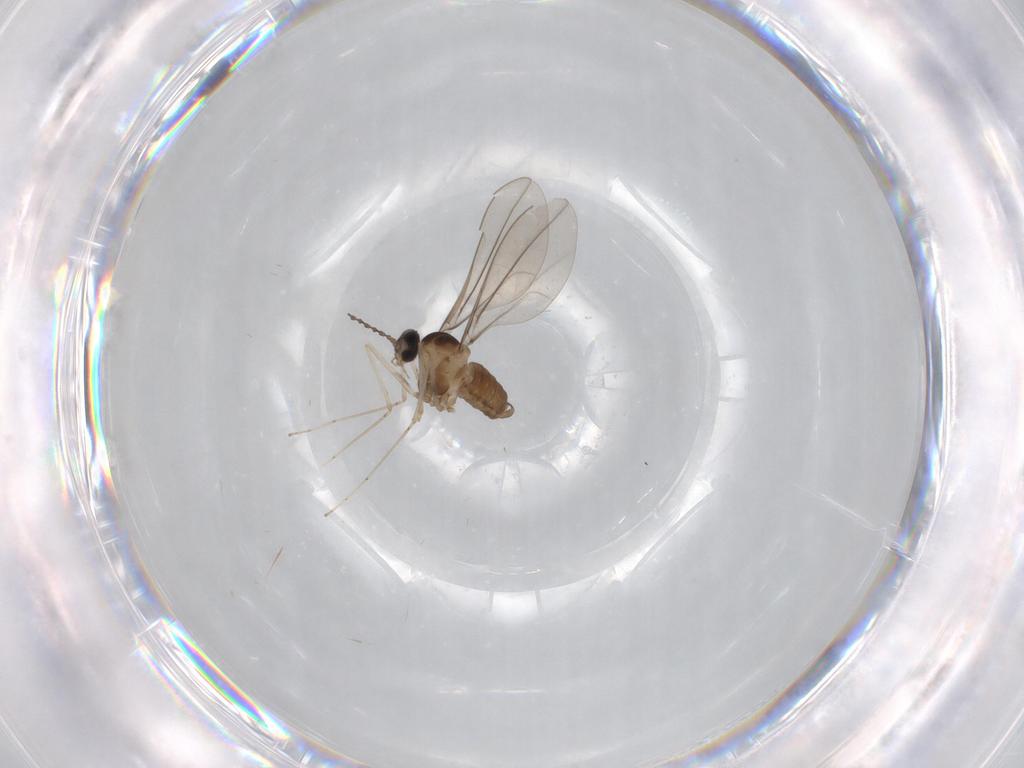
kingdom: Animalia
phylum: Arthropoda
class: Insecta
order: Diptera
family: Cecidomyiidae
